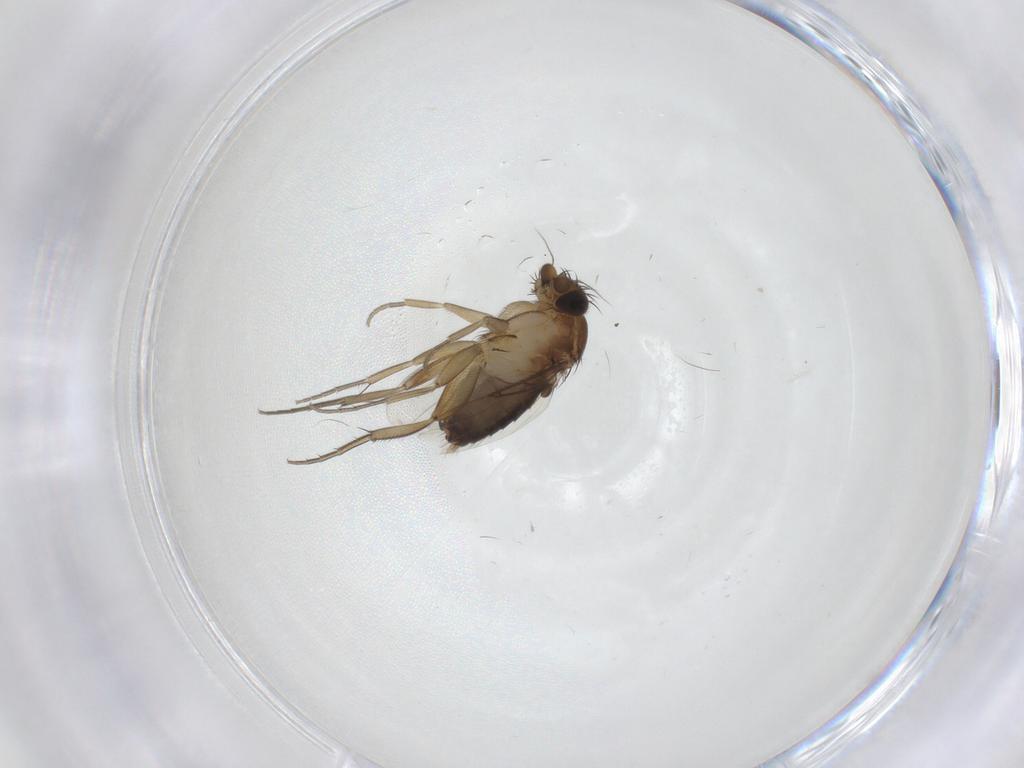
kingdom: Animalia
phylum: Arthropoda
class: Insecta
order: Diptera
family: Phoridae
